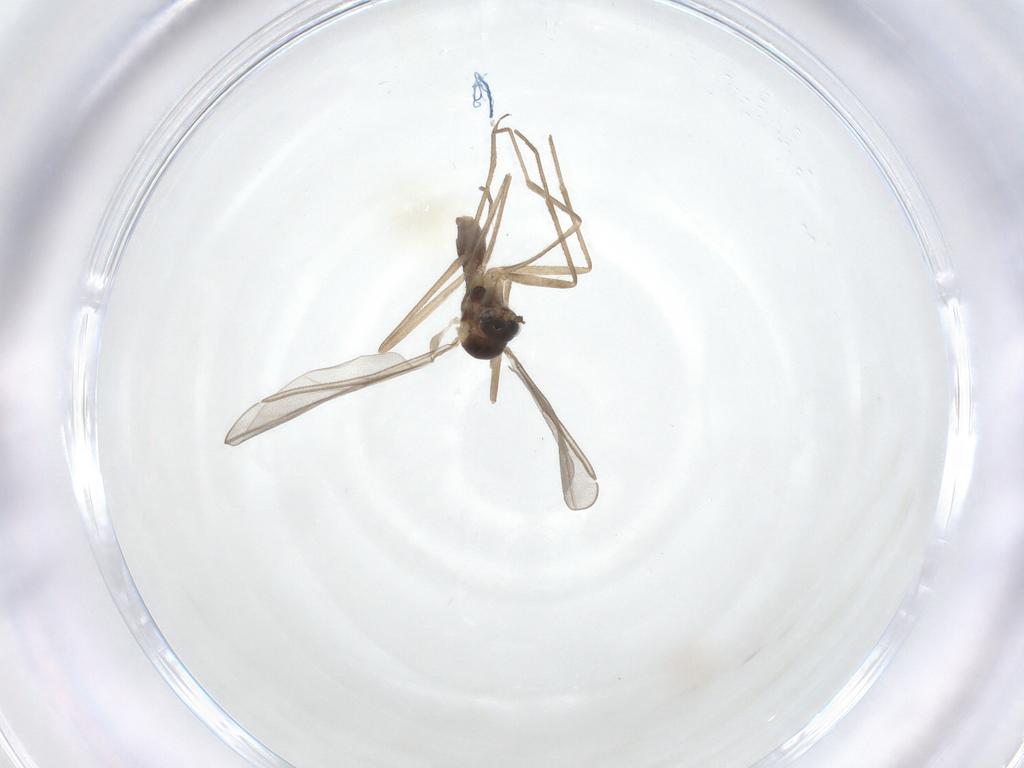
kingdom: Animalia
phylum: Arthropoda
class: Insecta
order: Diptera
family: Cecidomyiidae
